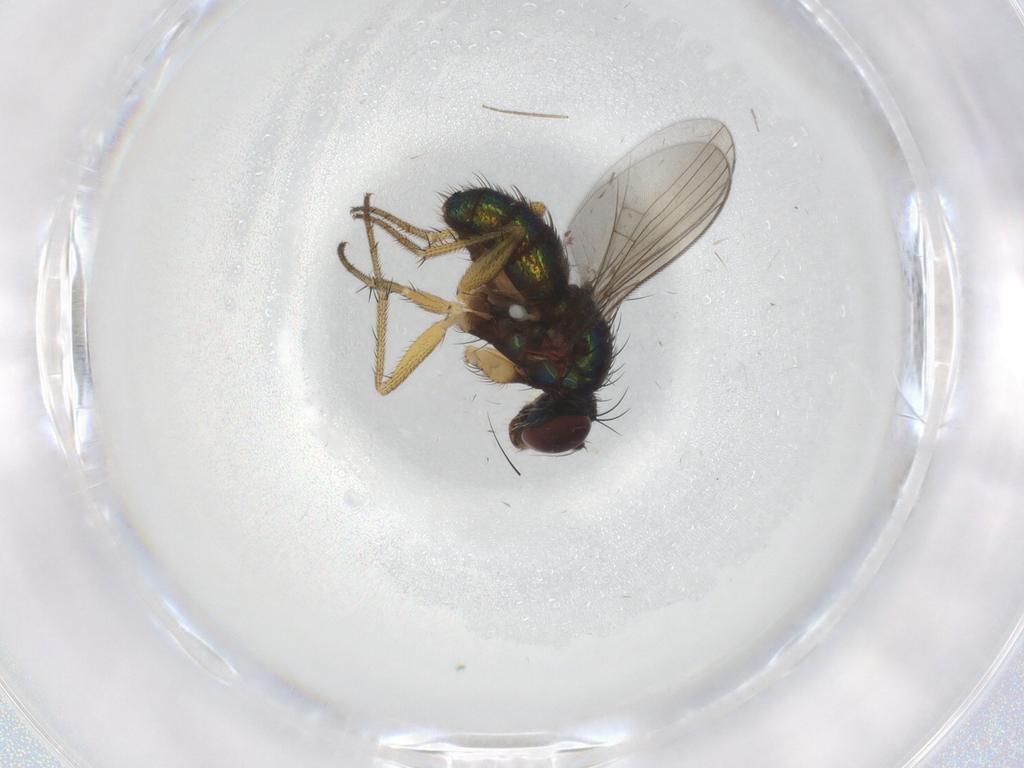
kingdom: Animalia
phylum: Arthropoda
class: Insecta
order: Diptera
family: Dolichopodidae
